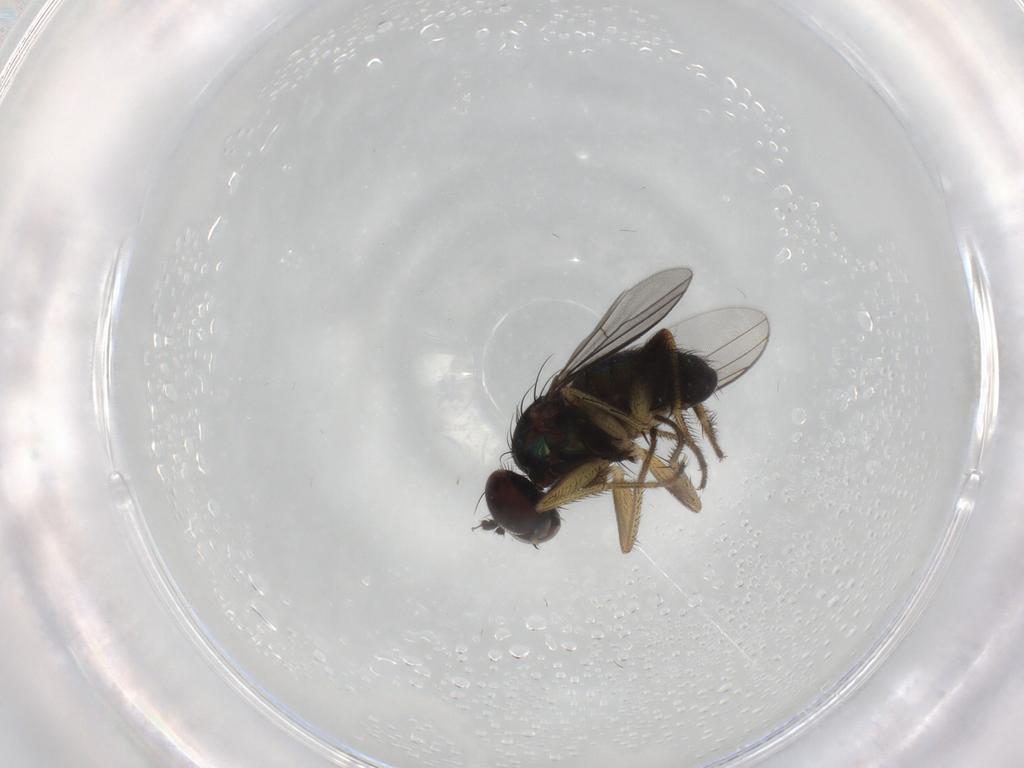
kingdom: Animalia
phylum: Arthropoda
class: Insecta
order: Diptera
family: Dolichopodidae
